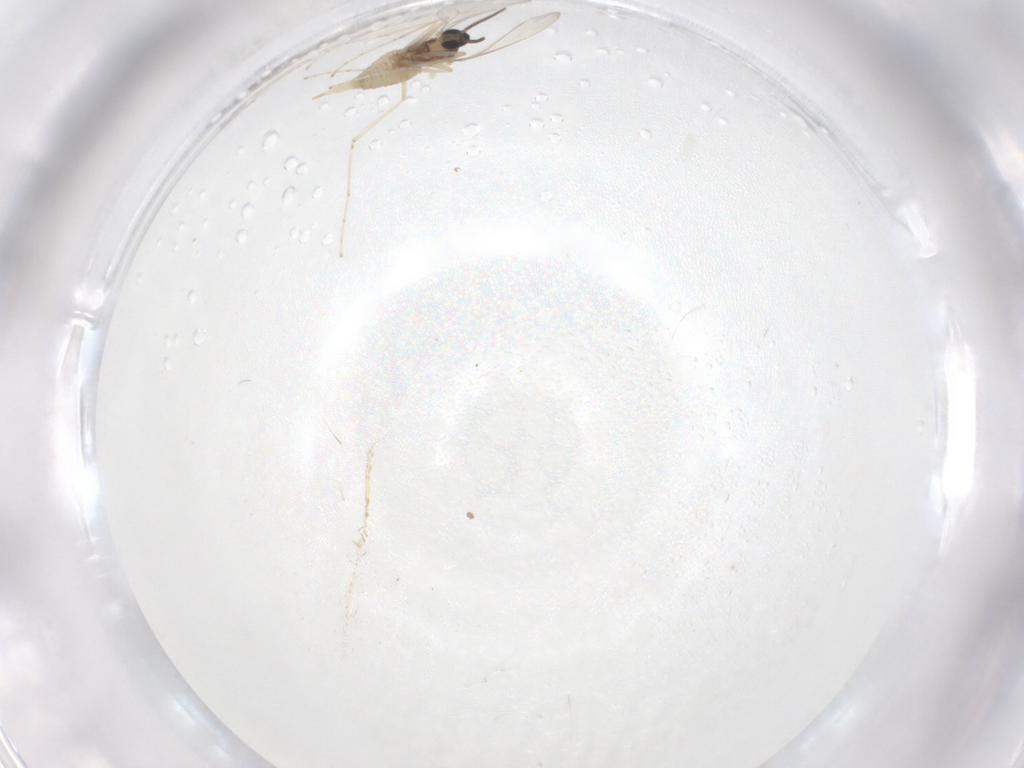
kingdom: Animalia
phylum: Arthropoda
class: Insecta
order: Diptera
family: Cecidomyiidae
